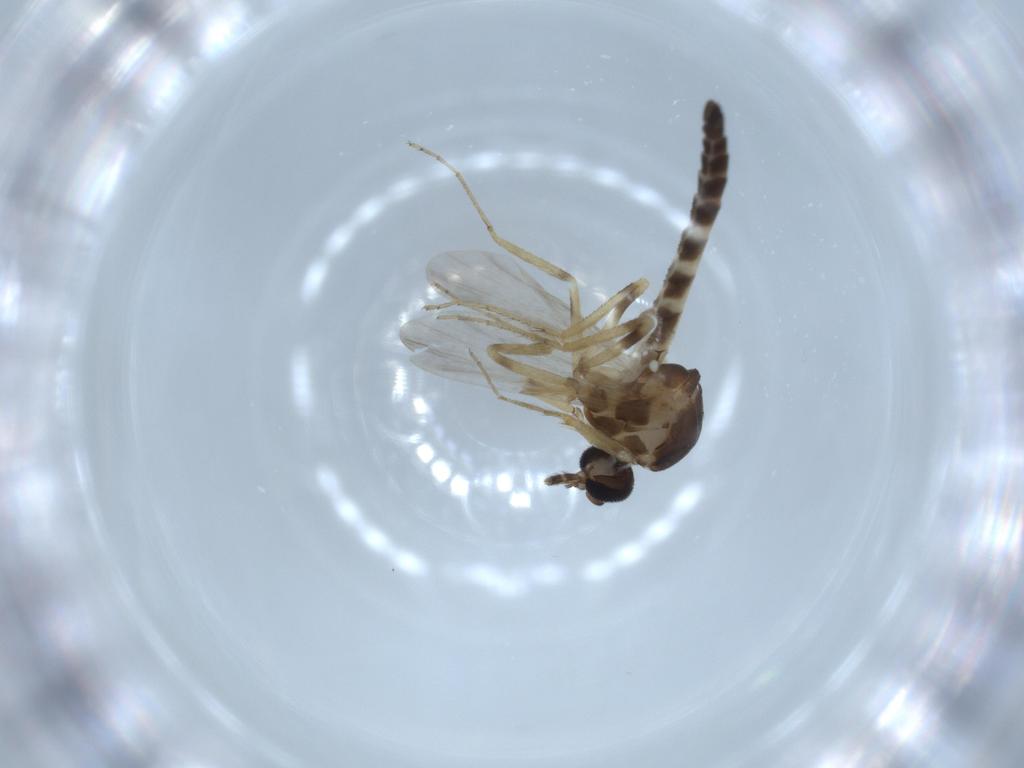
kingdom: Animalia
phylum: Arthropoda
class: Insecta
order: Diptera
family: Ceratopogonidae
